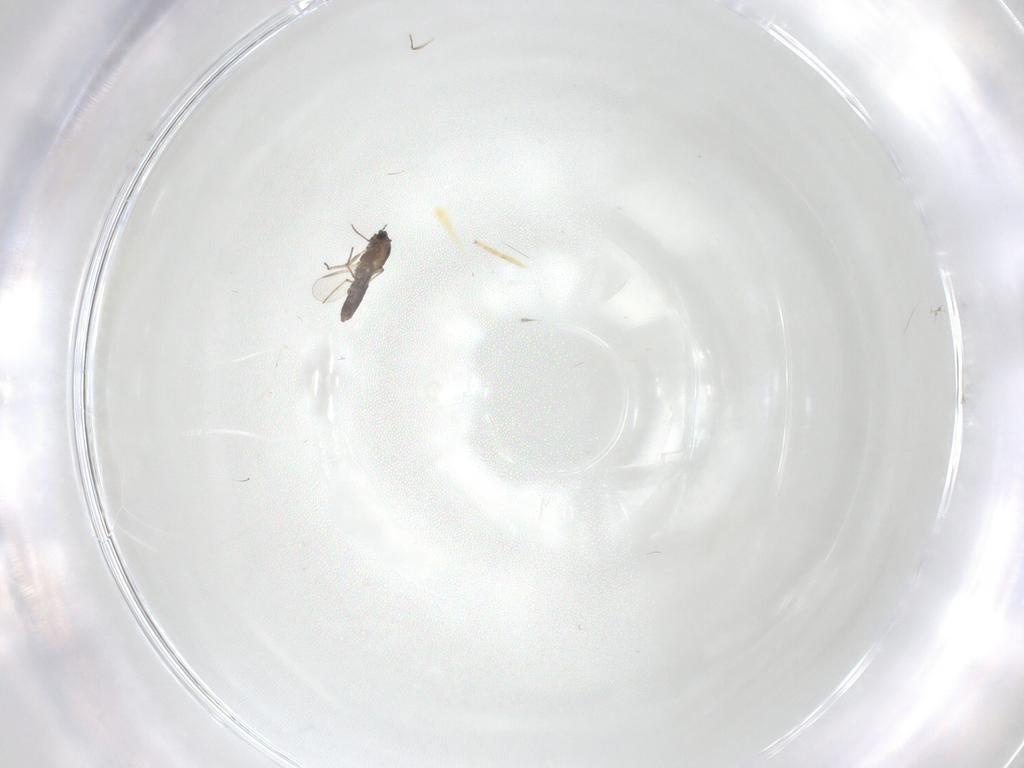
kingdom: Animalia
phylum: Arthropoda
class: Insecta
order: Diptera
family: Chironomidae
